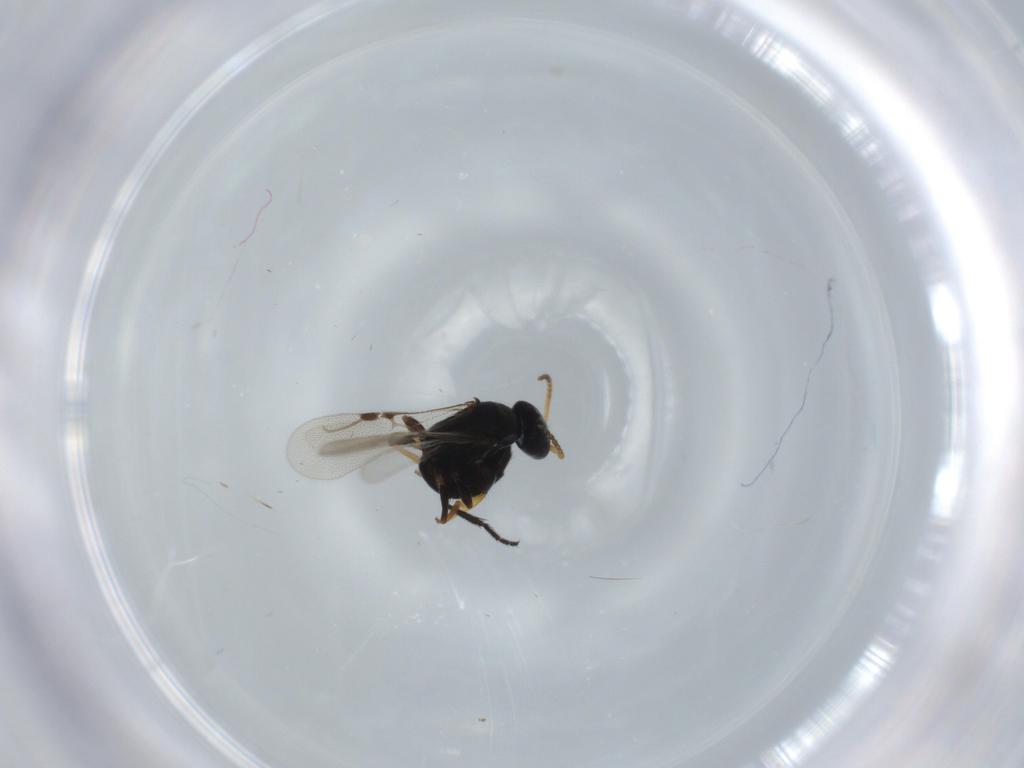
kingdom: Animalia
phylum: Arthropoda
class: Insecta
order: Hymenoptera
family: Bethylidae
